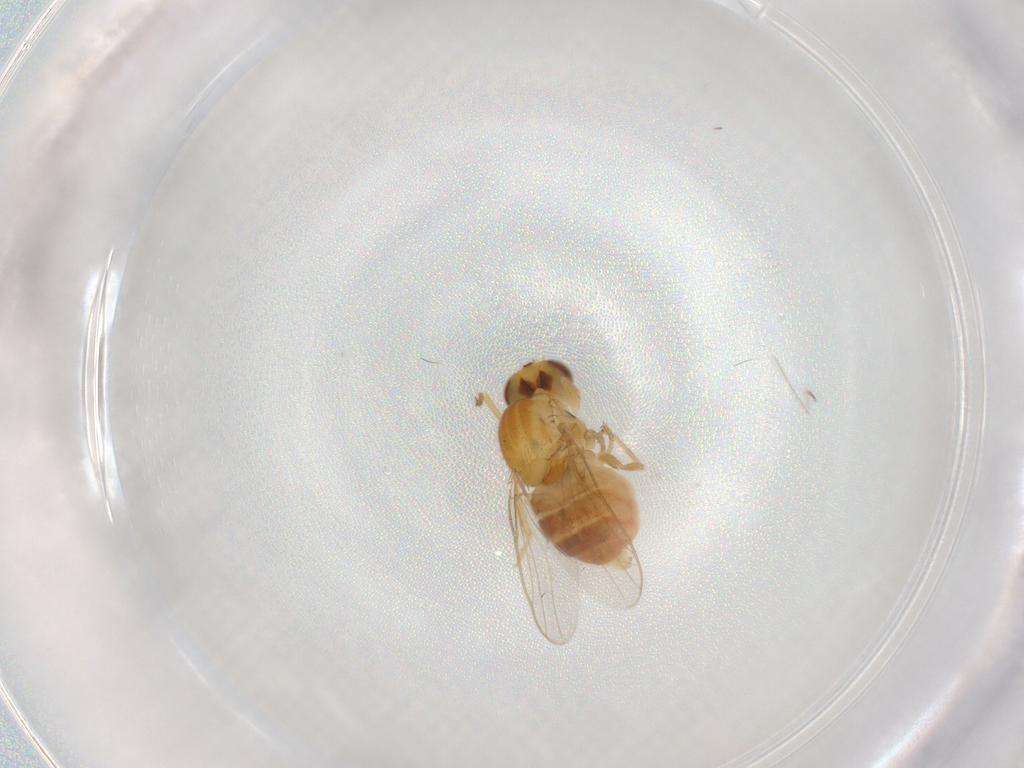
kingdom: Animalia
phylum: Arthropoda
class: Insecta
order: Diptera
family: Chloropidae
